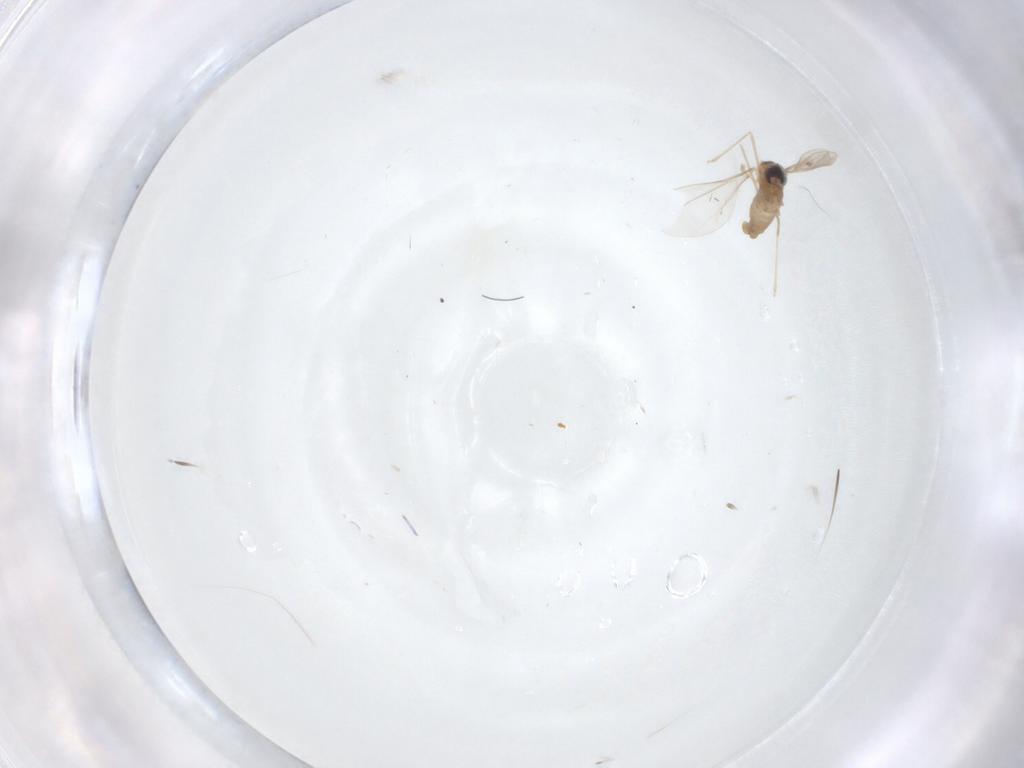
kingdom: Animalia
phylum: Arthropoda
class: Insecta
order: Diptera
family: Cecidomyiidae
